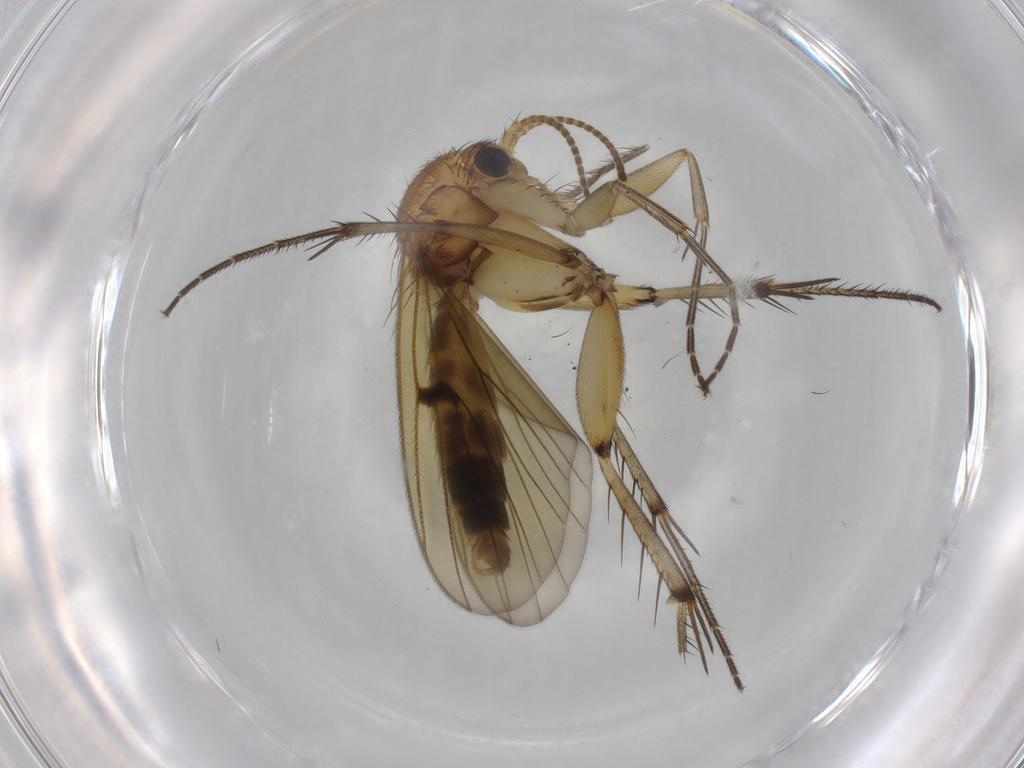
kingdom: Animalia
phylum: Arthropoda
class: Insecta
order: Diptera
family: Mycetophilidae
